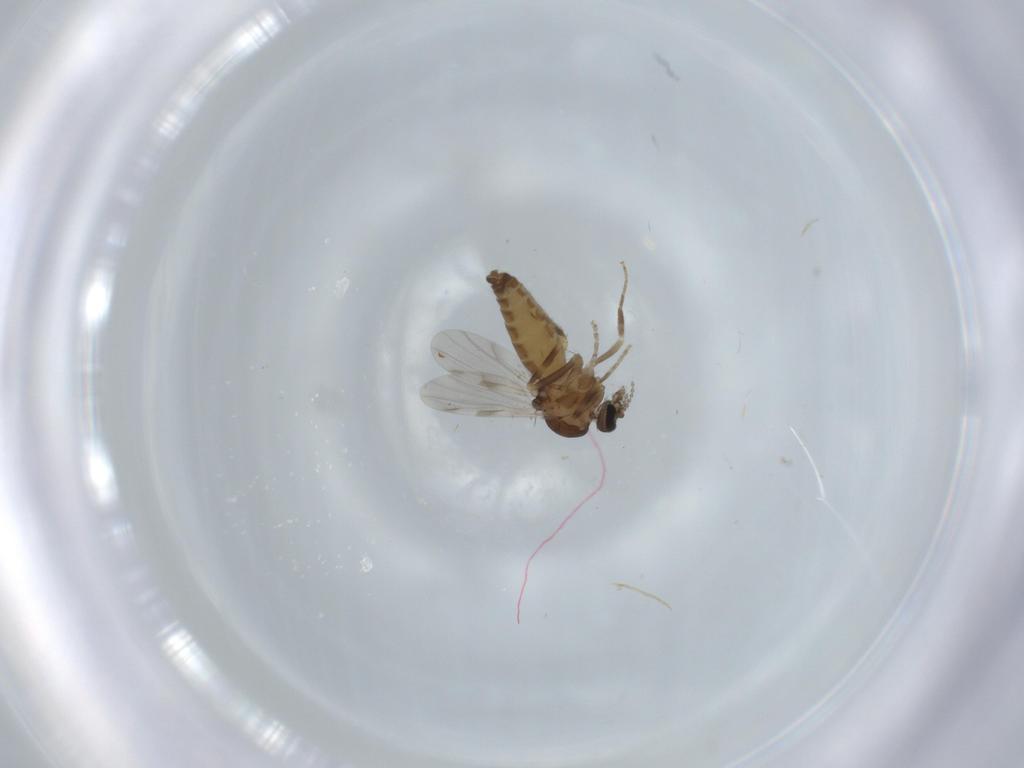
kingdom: Animalia
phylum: Arthropoda
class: Insecta
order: Diptera
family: Ceratopogonidae
